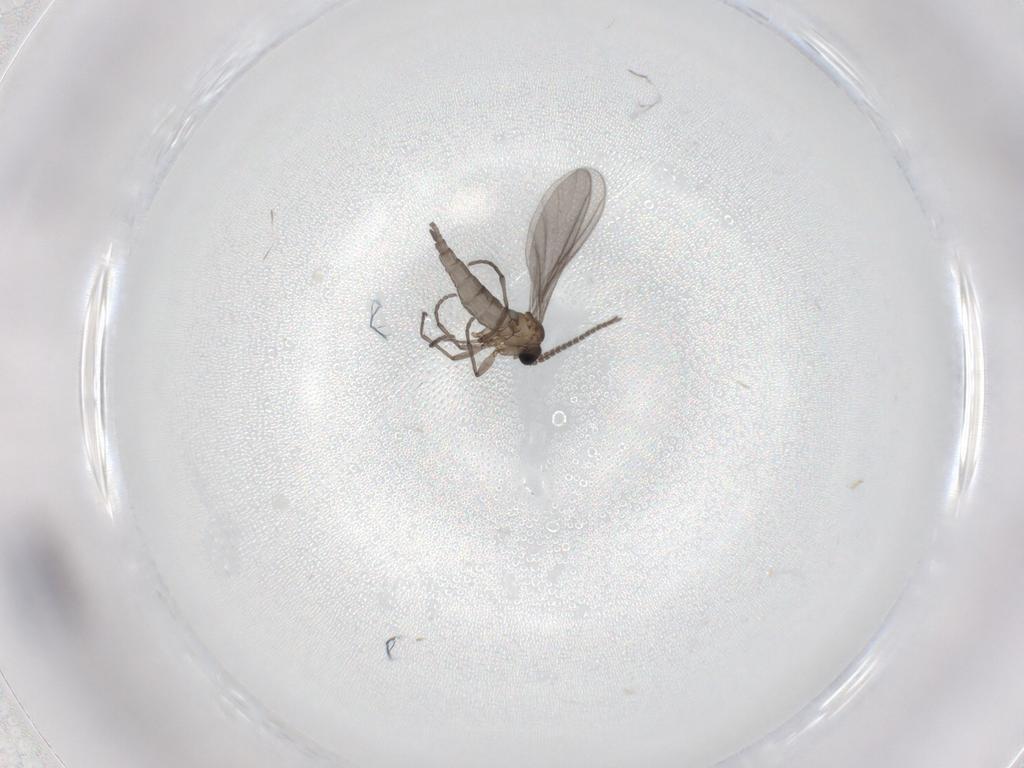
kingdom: Animalia
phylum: Arthropoda
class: Insecta
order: Diptera
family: Sciaridae
